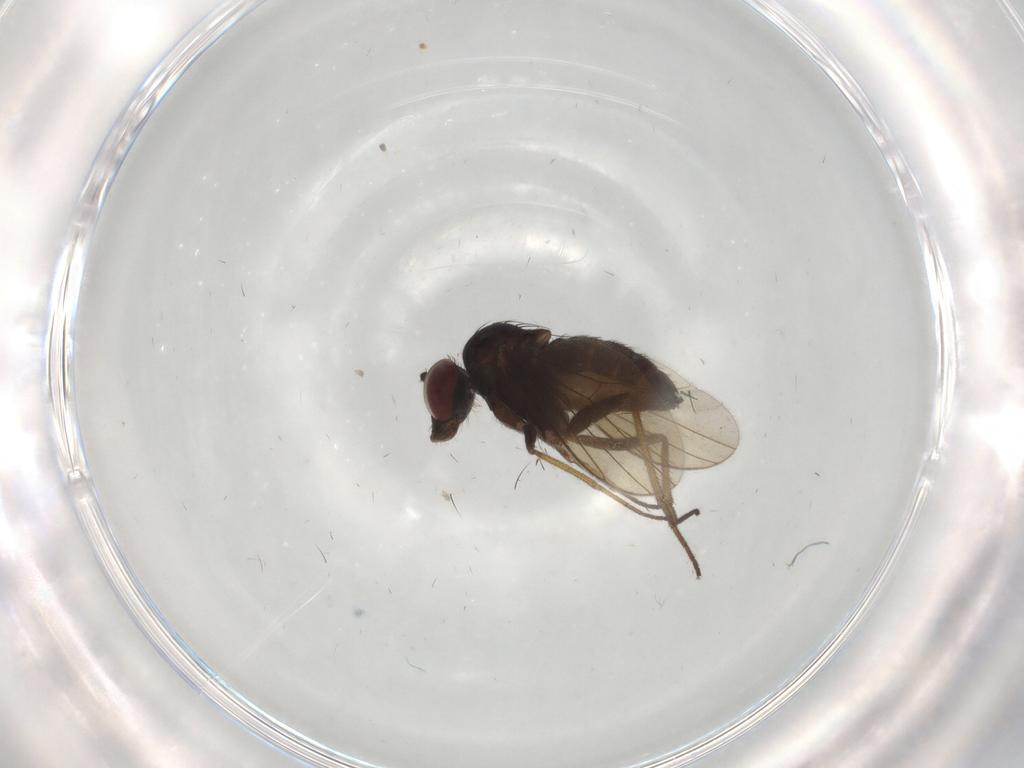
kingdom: Animalia
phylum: Arthropoda
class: Insecta
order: Diptera
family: Dolichopodidae
